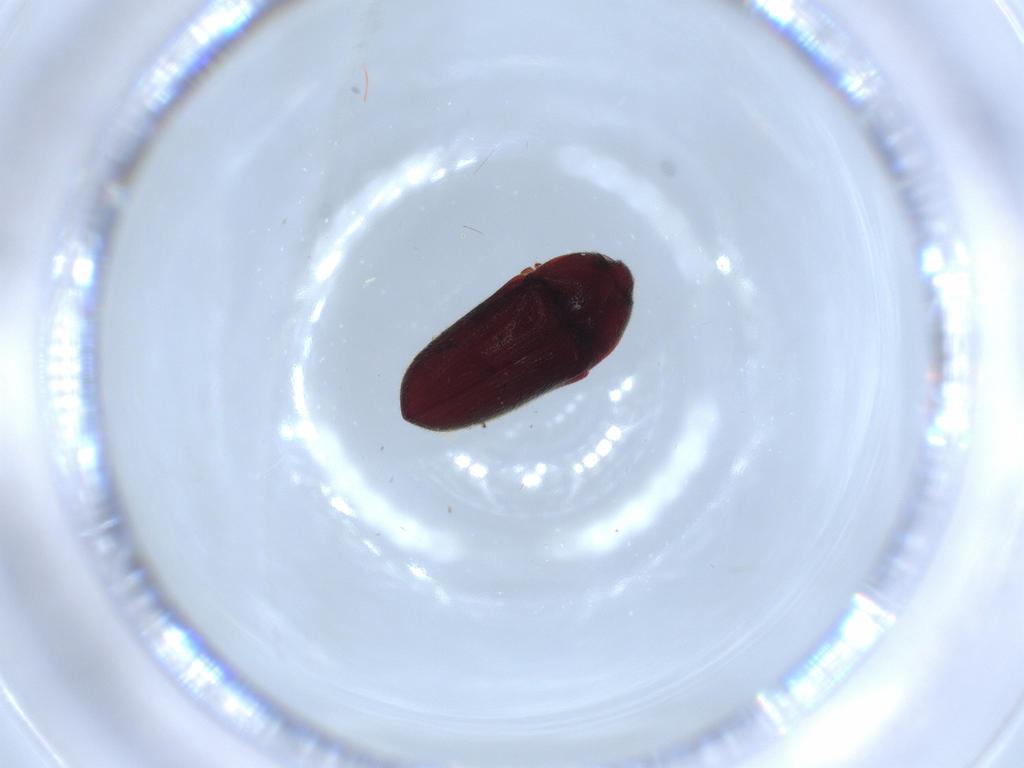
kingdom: Animalia
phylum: Arthropoda
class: Insecta
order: Coleoptera
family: Chrysomelidae
